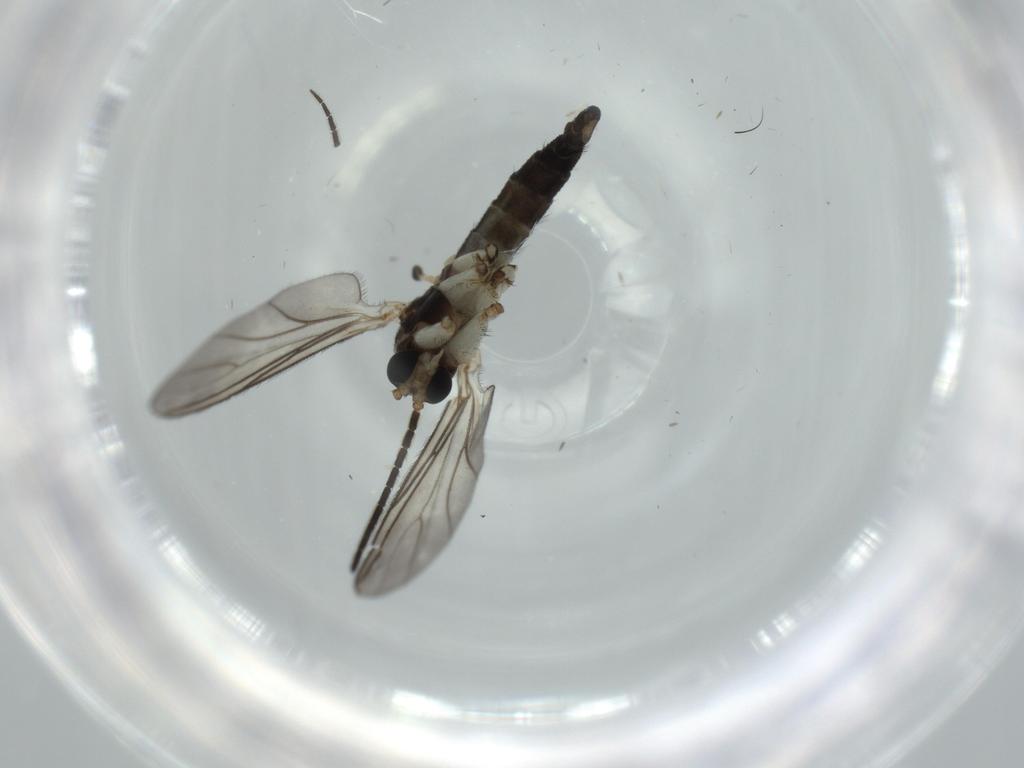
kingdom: Animalia
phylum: Arthropoda
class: Insecta
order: Diptera
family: Sciaridae
